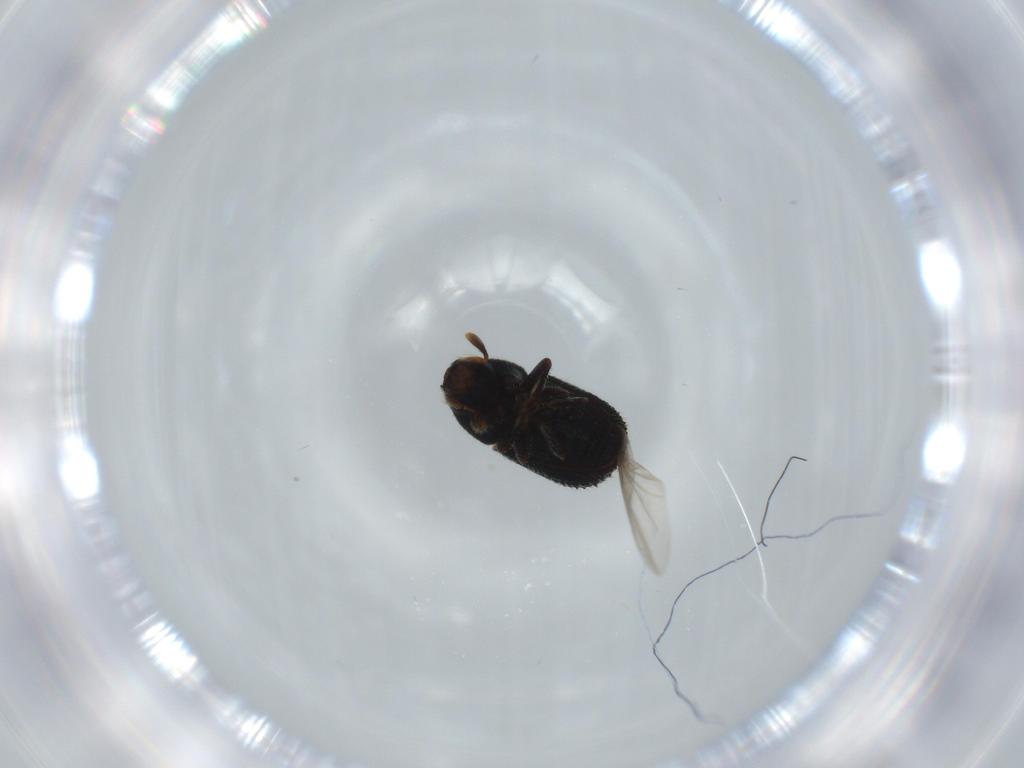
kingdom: Animalia
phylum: Arthropoda
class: Insecta
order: Coleoptera
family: Curculionidae
